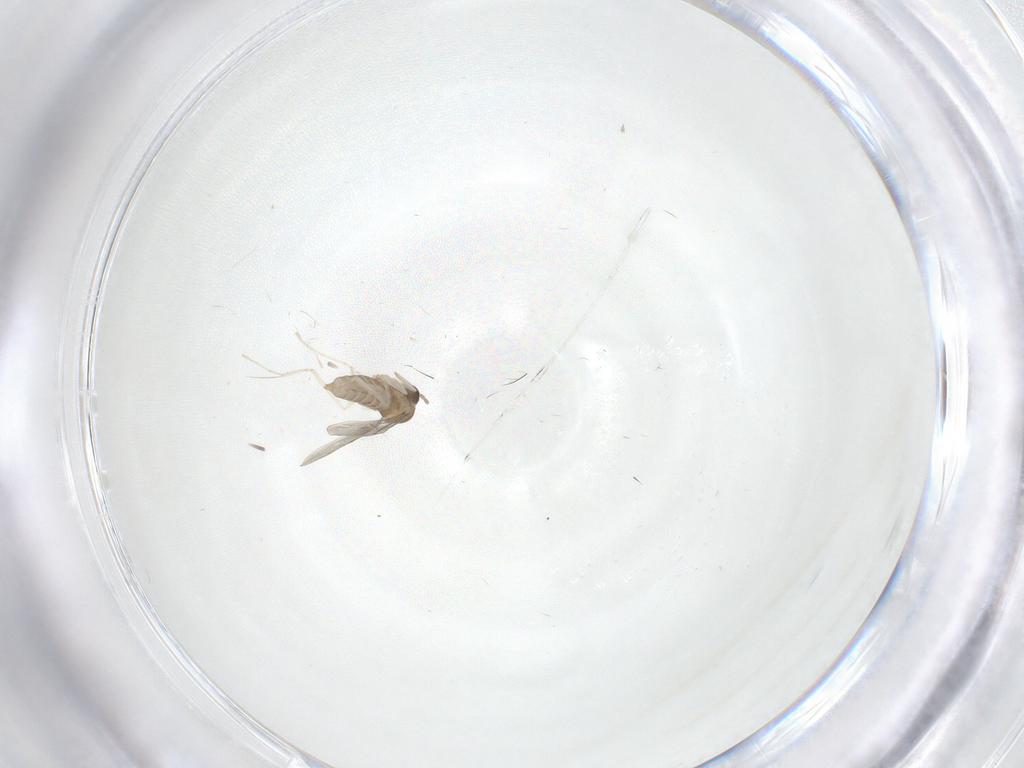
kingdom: Animalia
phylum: Arthropoda
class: Insecta
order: Diptera
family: Cecidomyiidae
